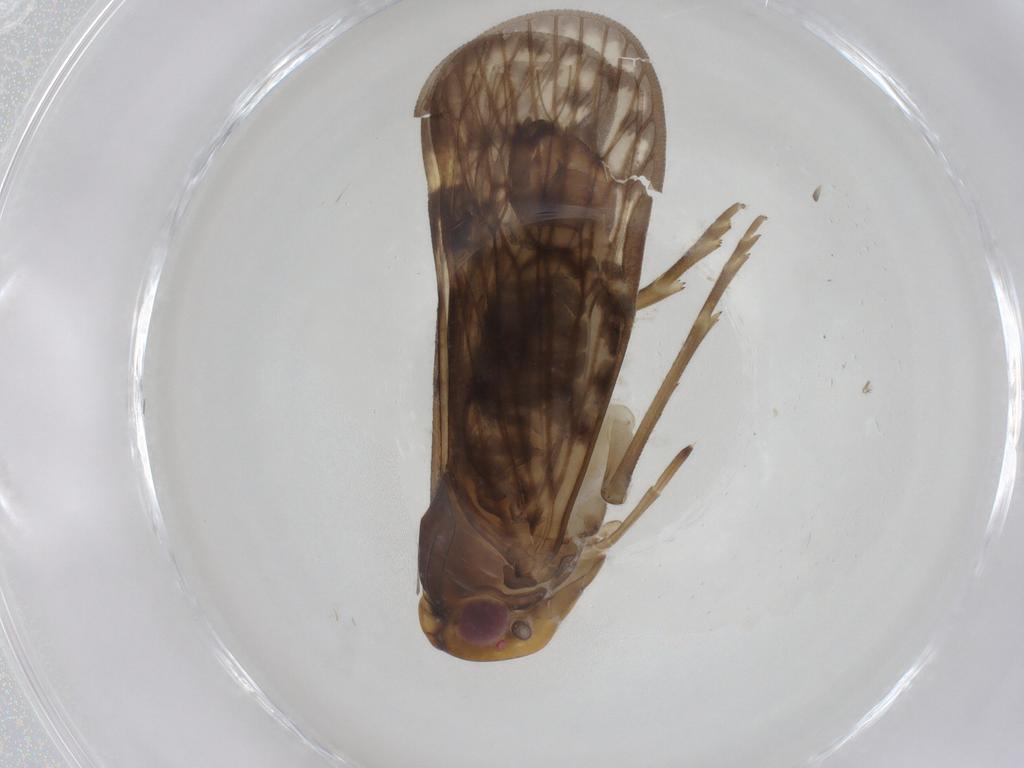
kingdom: Animalia
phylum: Arthropoda
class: Insecta
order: Hemiptera
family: Cixiidae
